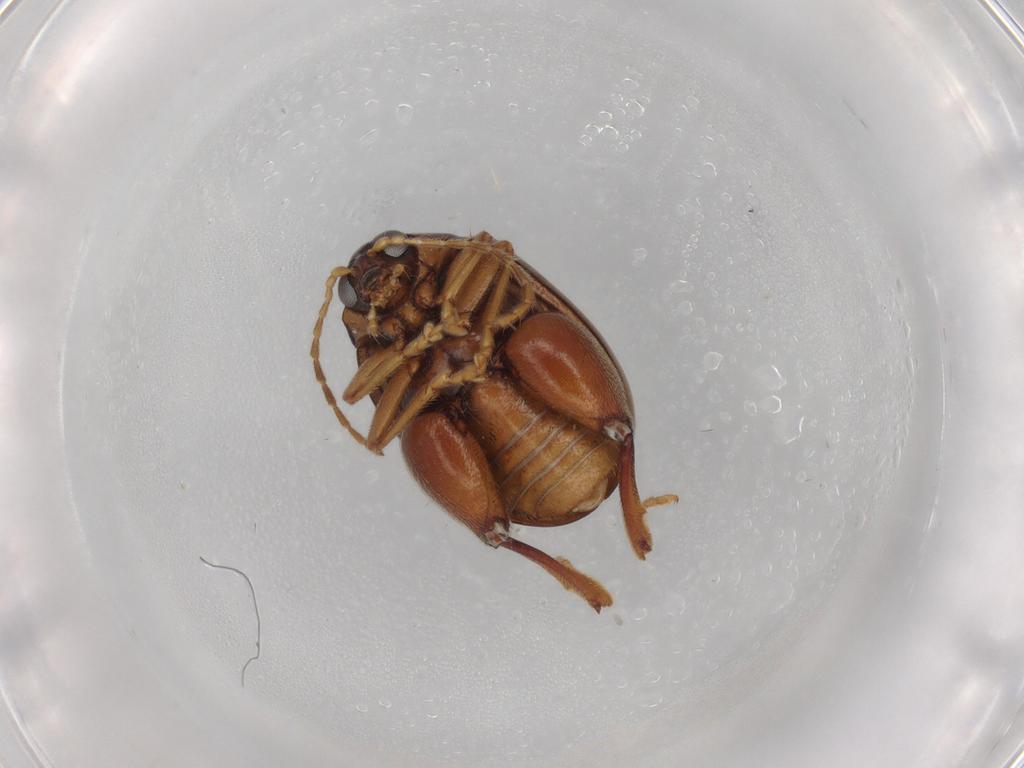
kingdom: Animalia
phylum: Arthropoda
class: Insecta
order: Coleoptera
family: Chrysomelidae
